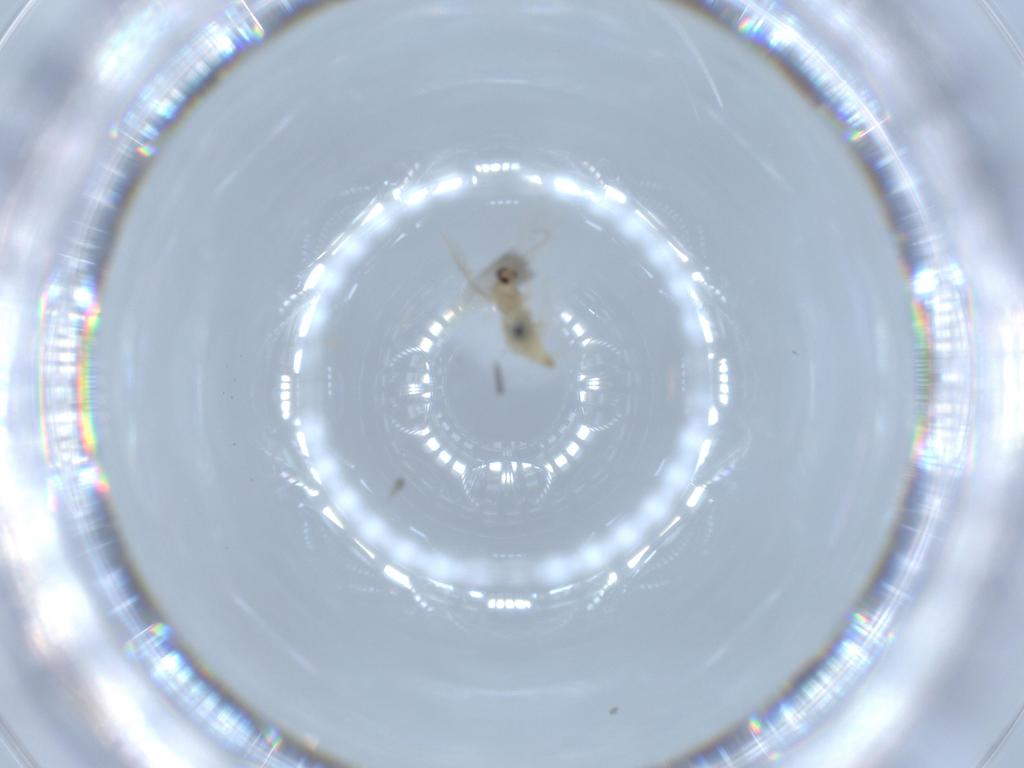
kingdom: Animalia
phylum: Arthropoda
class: Insecta
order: Diptera
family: Cecidomyiidae
